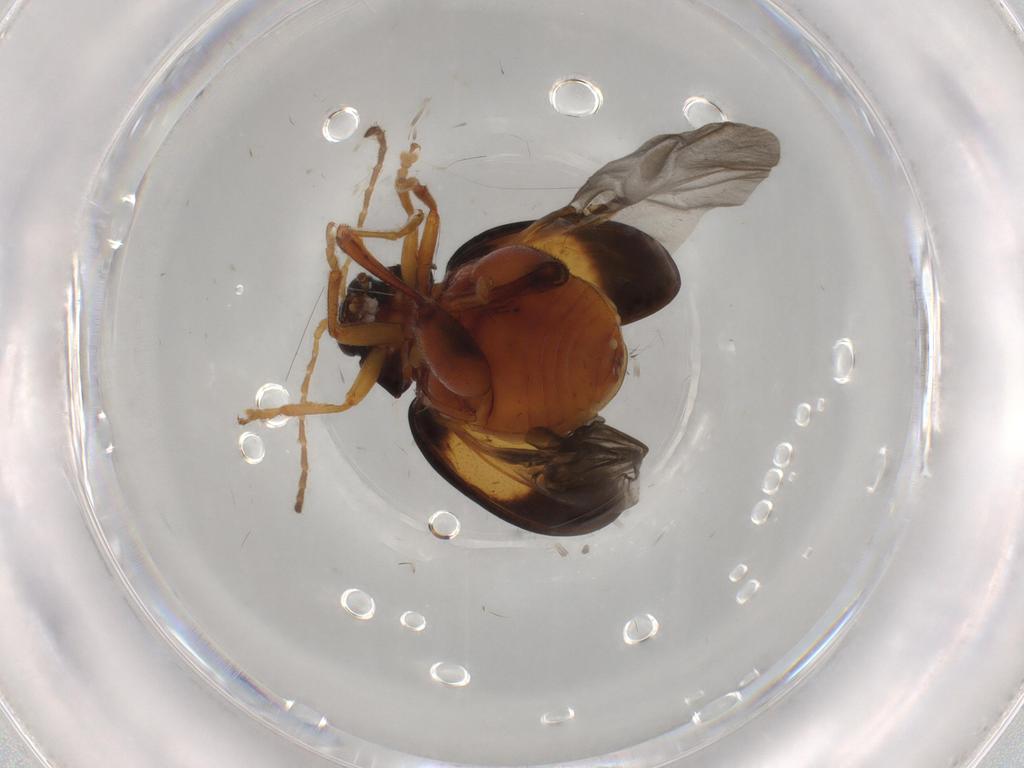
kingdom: Animalia
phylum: Arthropoda
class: Insecta
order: Coleoptera
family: Chrysomelidae
